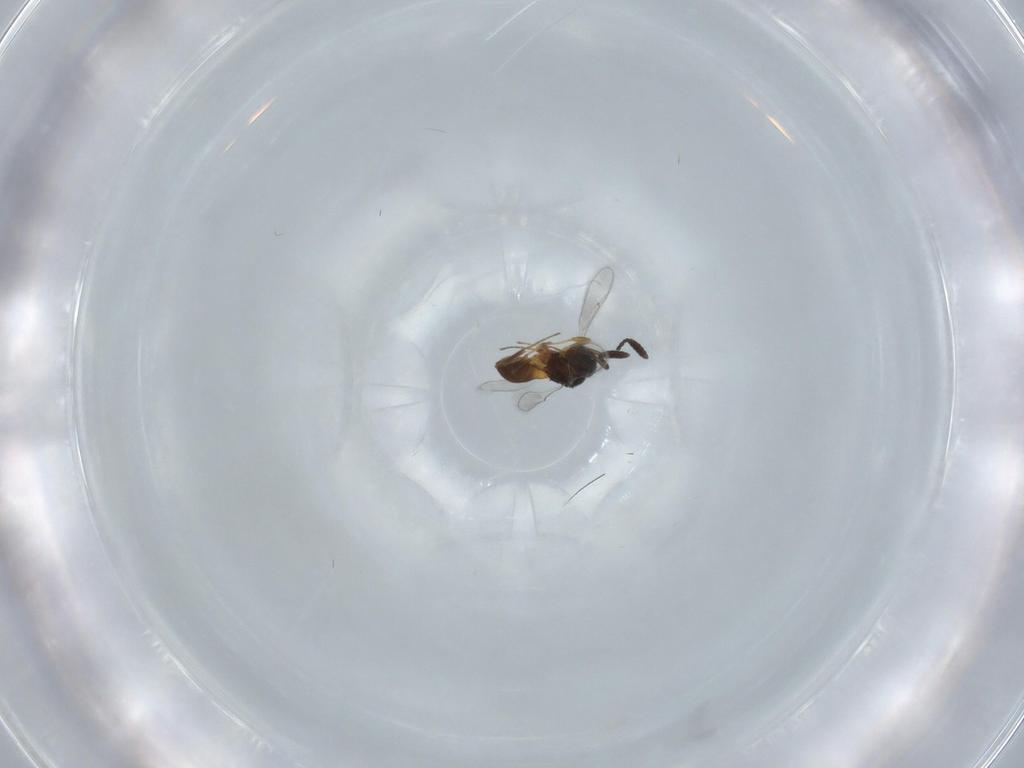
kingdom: Animalia
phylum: Arthropoda
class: Insecta
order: Hymenoptera
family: Scelionidae
